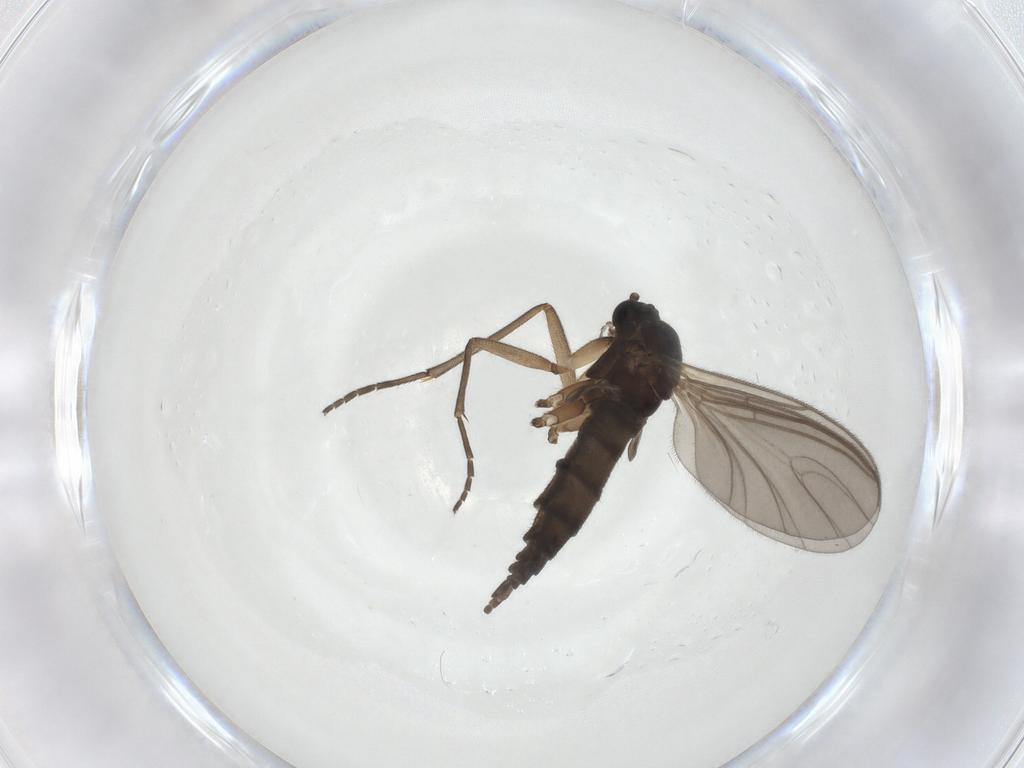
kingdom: Animalia
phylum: Arthropoda
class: Insecta
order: Diptera
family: Sciaridae
